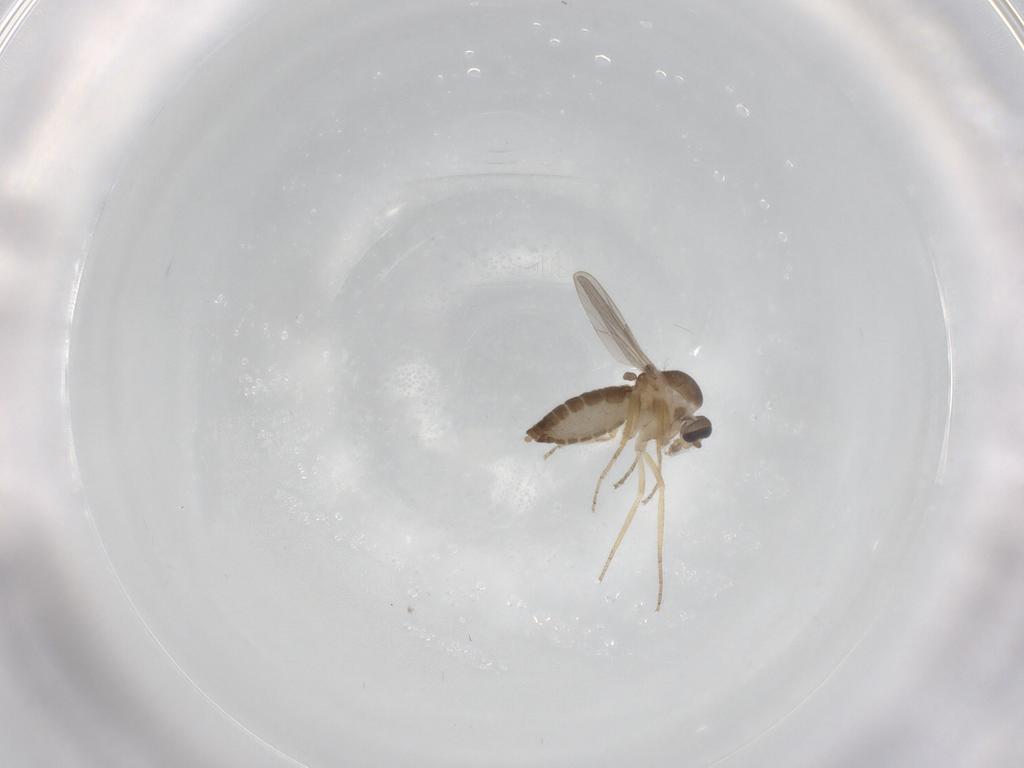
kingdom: Animalia
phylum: Arthropoda
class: Insecta
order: Diptera
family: Ceratopogonidae
